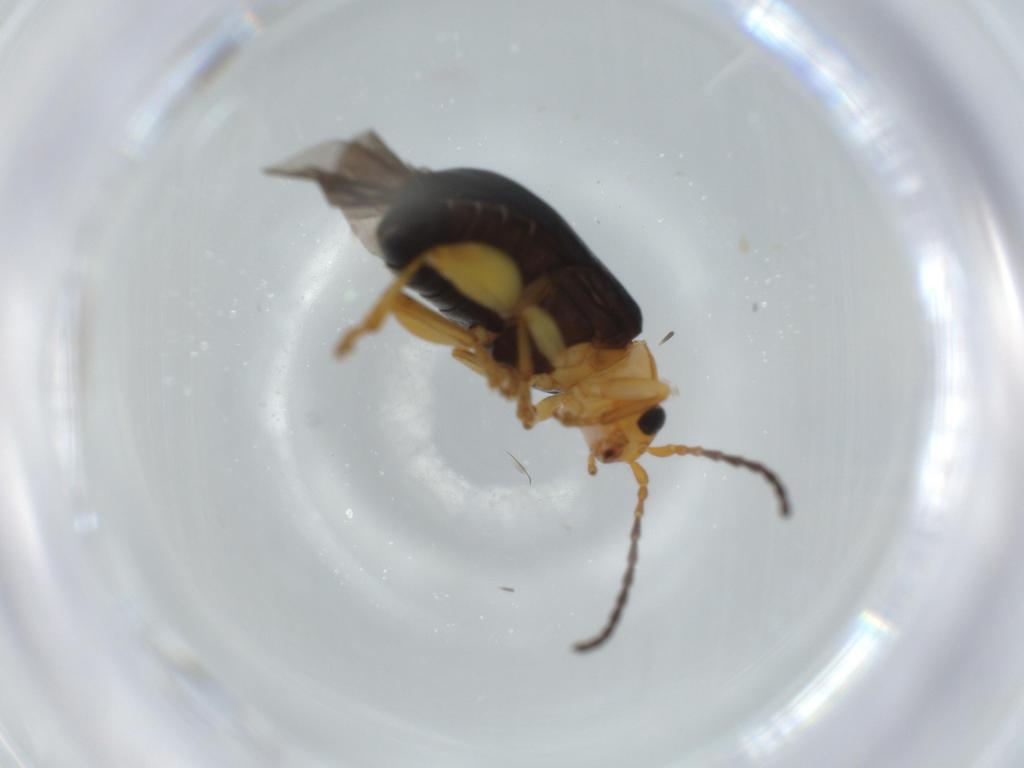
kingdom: Animalia
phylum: Arthropoda
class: Insecta
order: Coleoptera
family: Chrysomelidae
